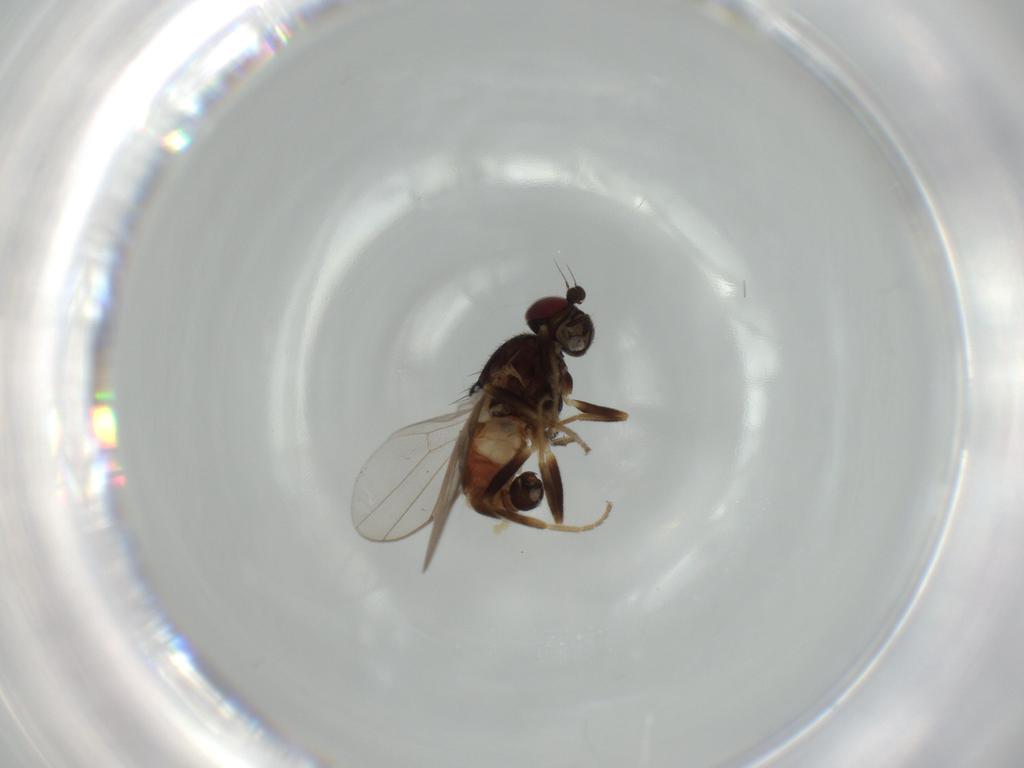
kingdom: Animalia
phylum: Arthropoda
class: Insecta
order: Diptera
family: Chloropidae
